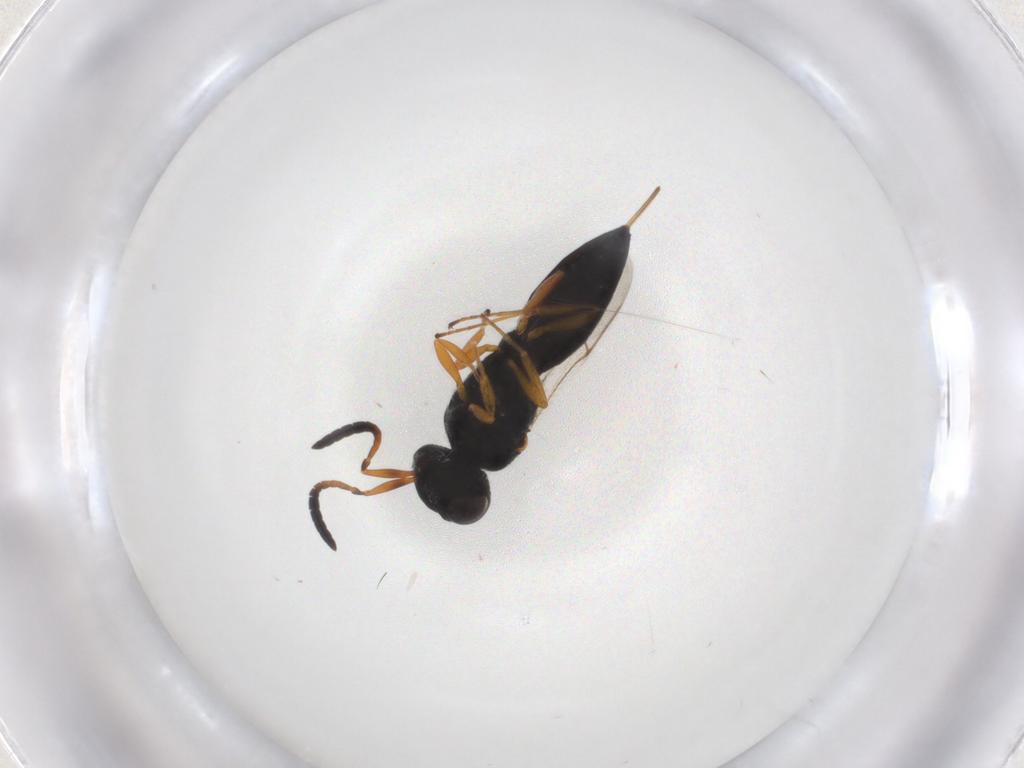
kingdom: Animalia
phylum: Arthropoda
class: Insecta
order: Hymenoptera
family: Scelionidae
